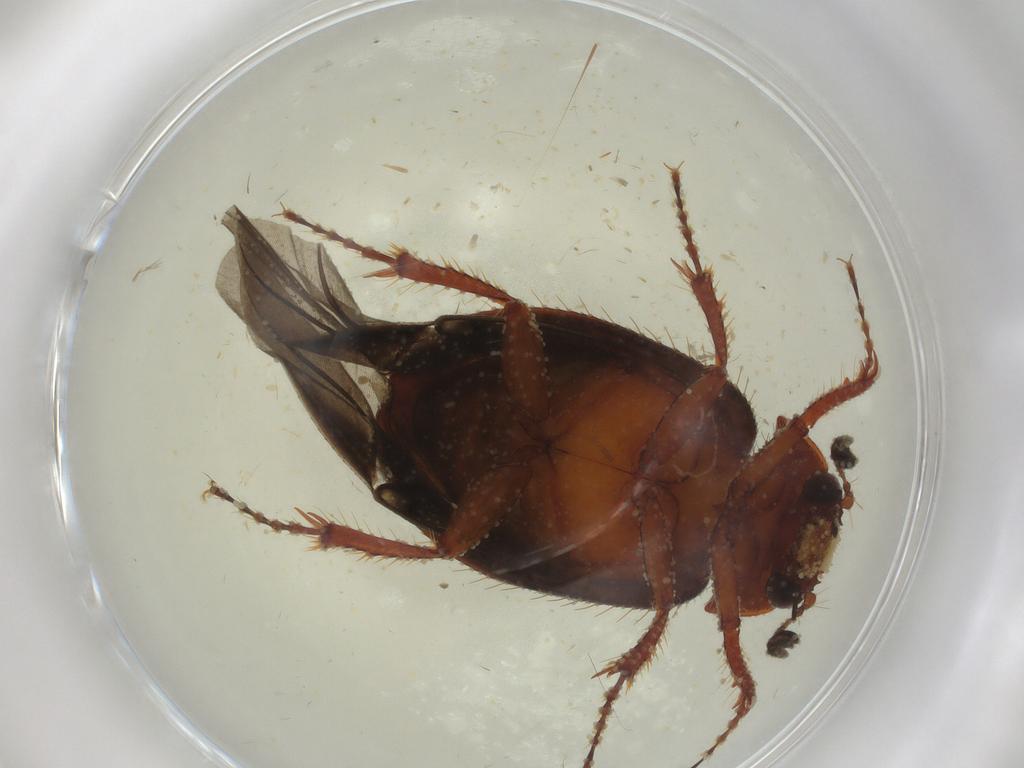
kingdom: Animalia
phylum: Arthropoda
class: Insecta
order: Coleoptera
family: Hybosoridae
